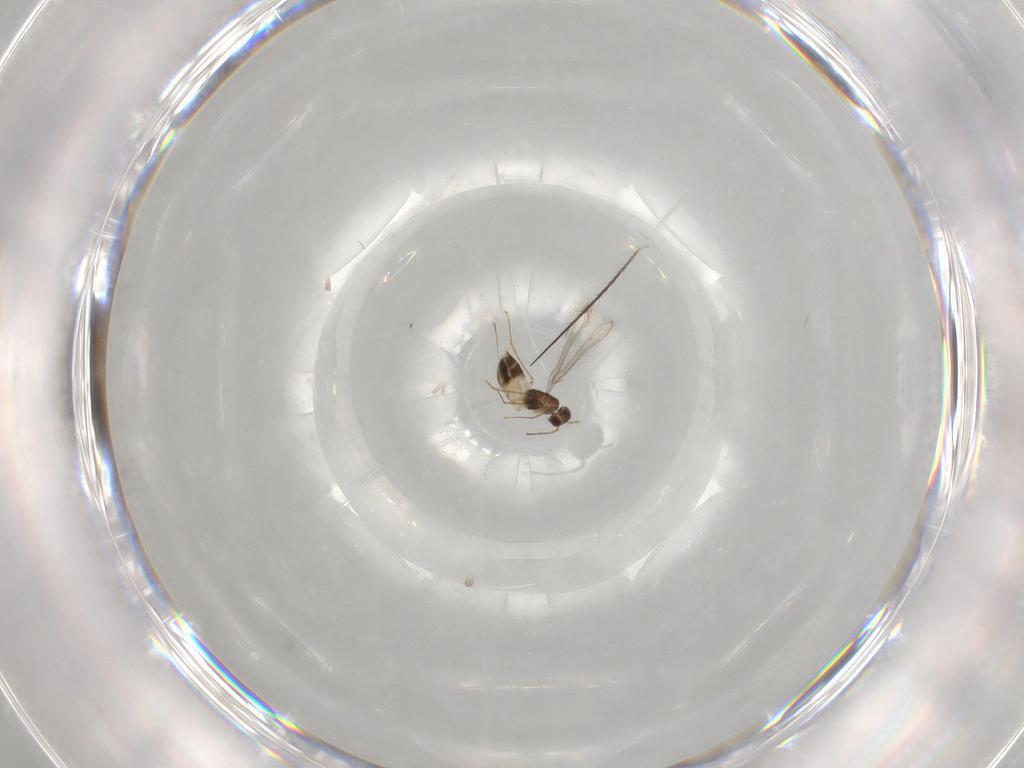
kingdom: Animalia
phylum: Arthropoda
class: Insecta
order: Hymenoptera
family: Mymaridae
